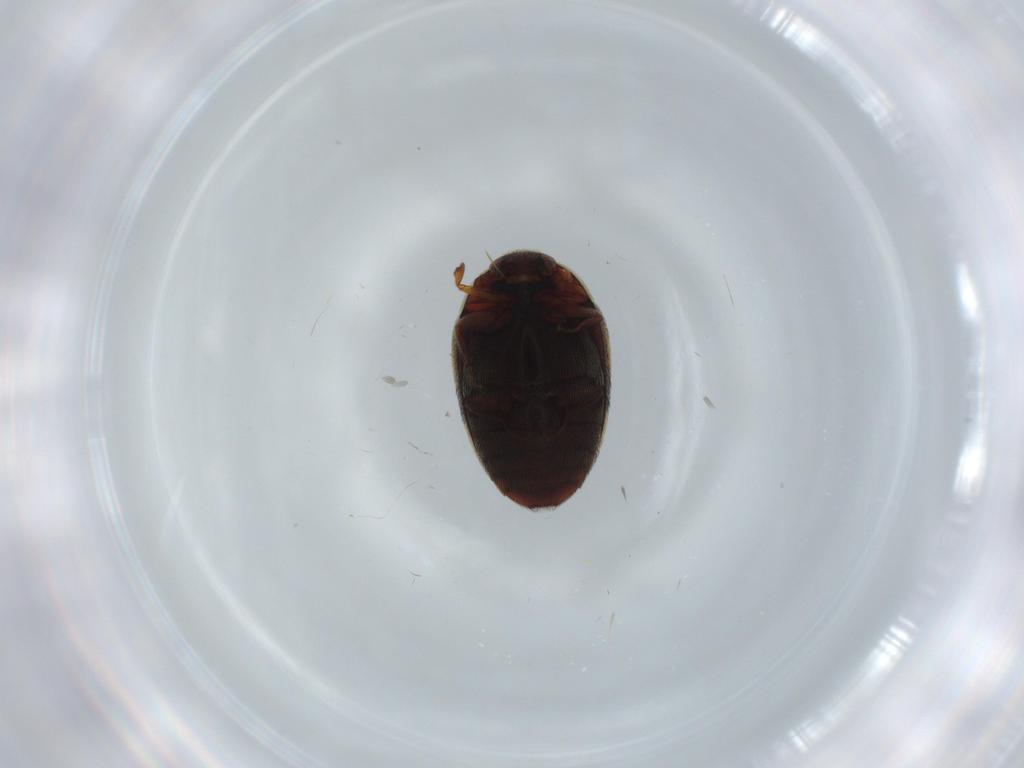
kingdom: Animalia
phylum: Arthropoda
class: Insecta
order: Coleoptera
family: Dermestidae
